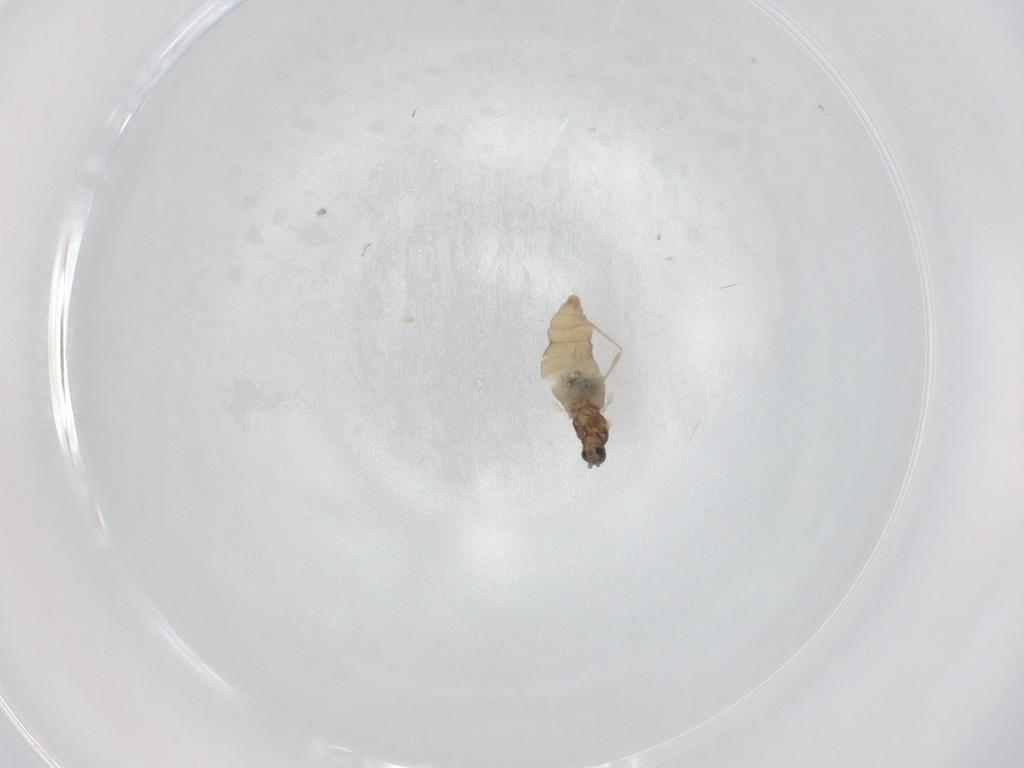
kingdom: Animalia
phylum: Arthropoda
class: Insecta
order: Diptera
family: Cecidomyiidae
